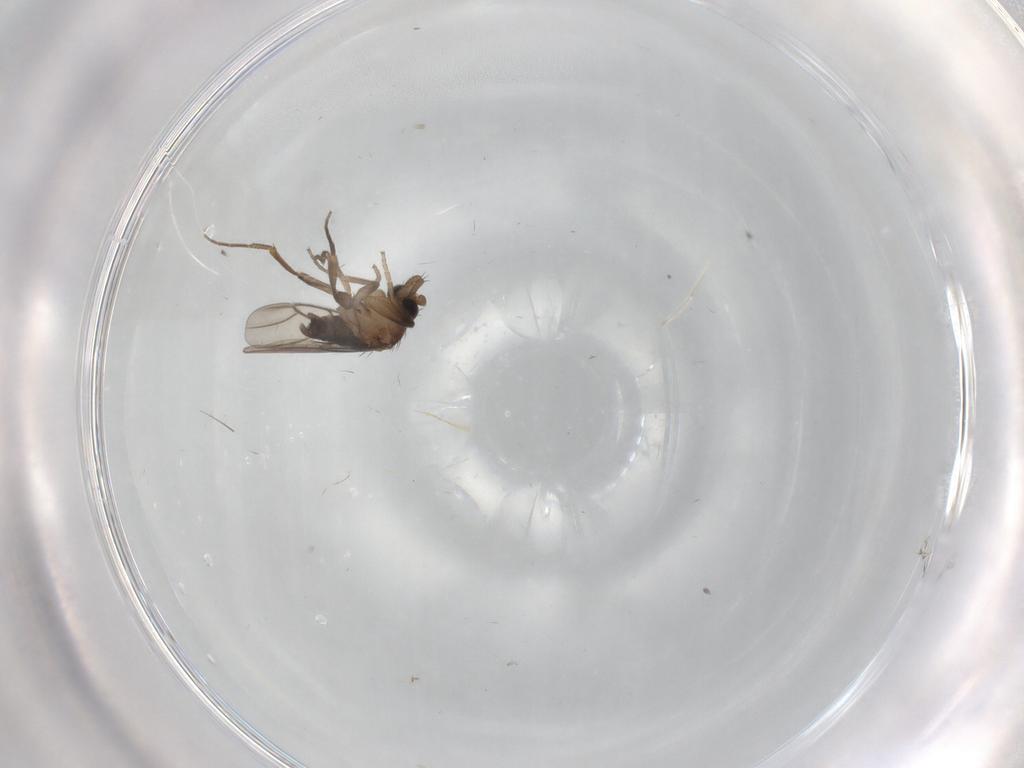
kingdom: Animalia
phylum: Arthropoda
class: Insecta
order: Diptera
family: Phoridae
